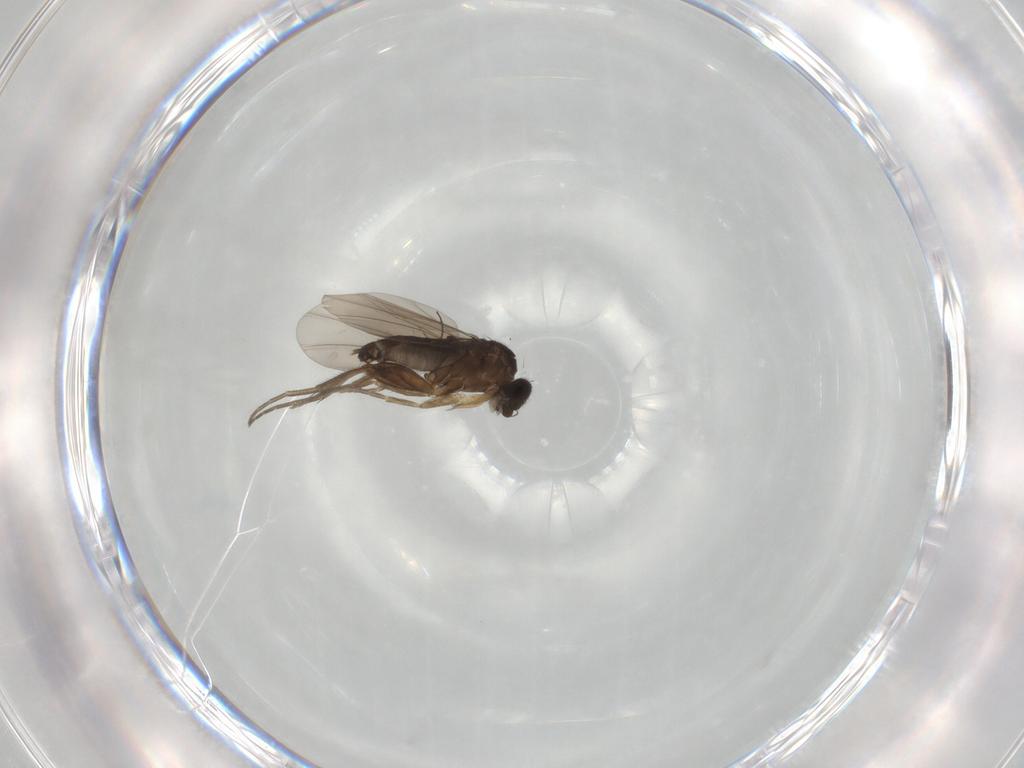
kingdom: Animalia
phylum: Arthropoda
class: Insecta
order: Diptera
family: Phoridae
